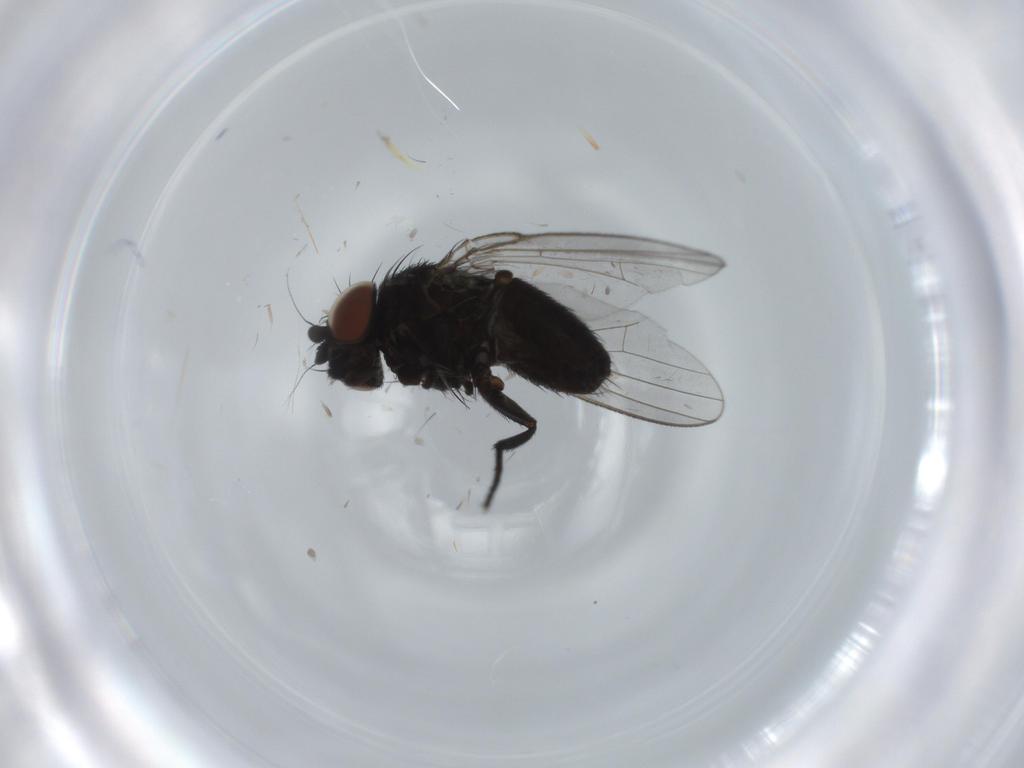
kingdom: Animalia
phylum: Arthropoda
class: Insecta
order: Diptera
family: Milichiidae
